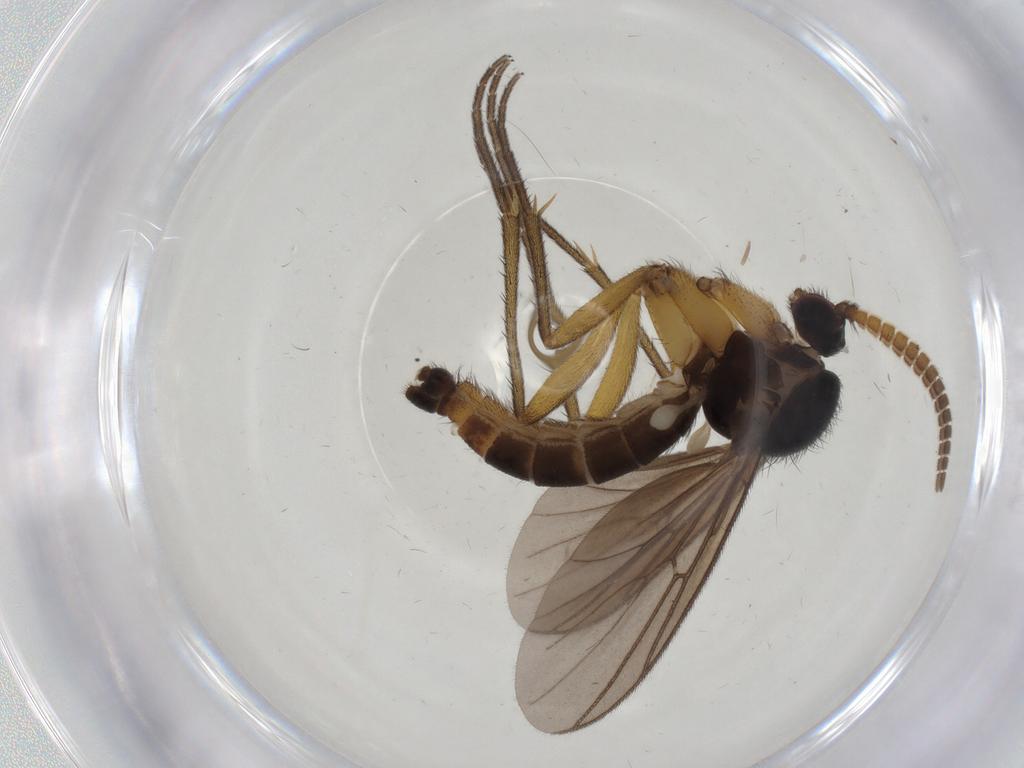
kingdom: Animalia
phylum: Arthropoda
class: Insecta
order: Diptera
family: Mycetophilidae
